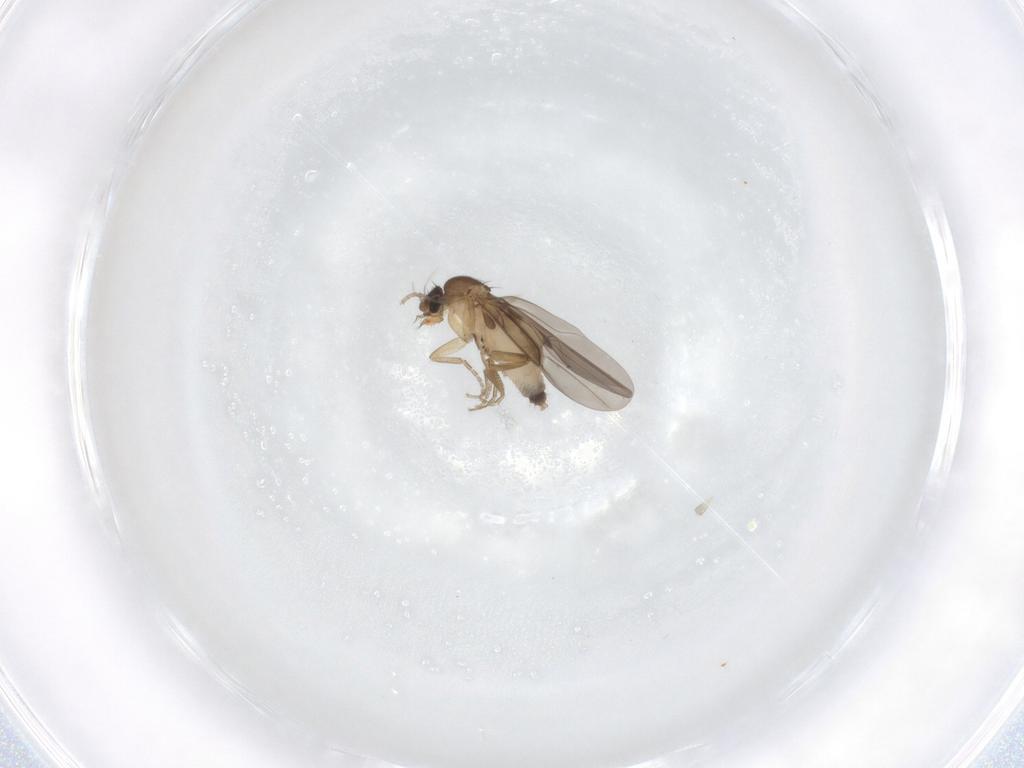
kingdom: Animalia
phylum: Arthropoda
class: Insecta
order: Diptera
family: Phoridae
